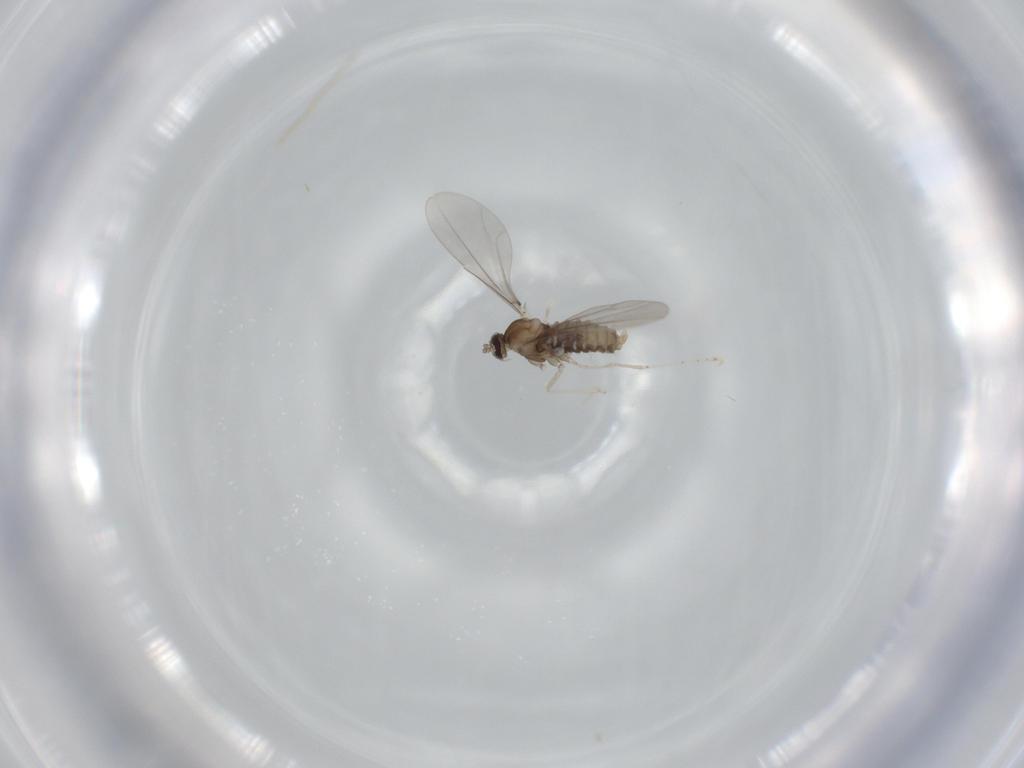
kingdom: Animalia
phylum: Arthropoda
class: Insecta
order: Diptera
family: Cecidomyiidae
